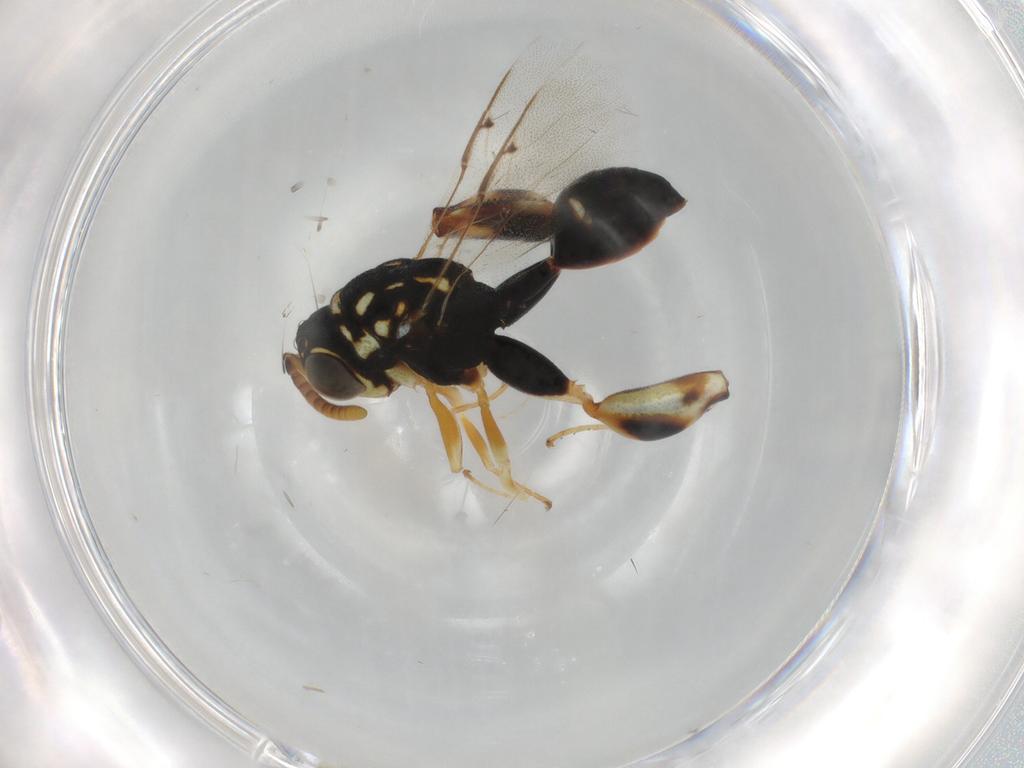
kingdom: Animalia
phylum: Arthropoda
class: Insecta
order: Hymenoptera
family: Chalcididae
